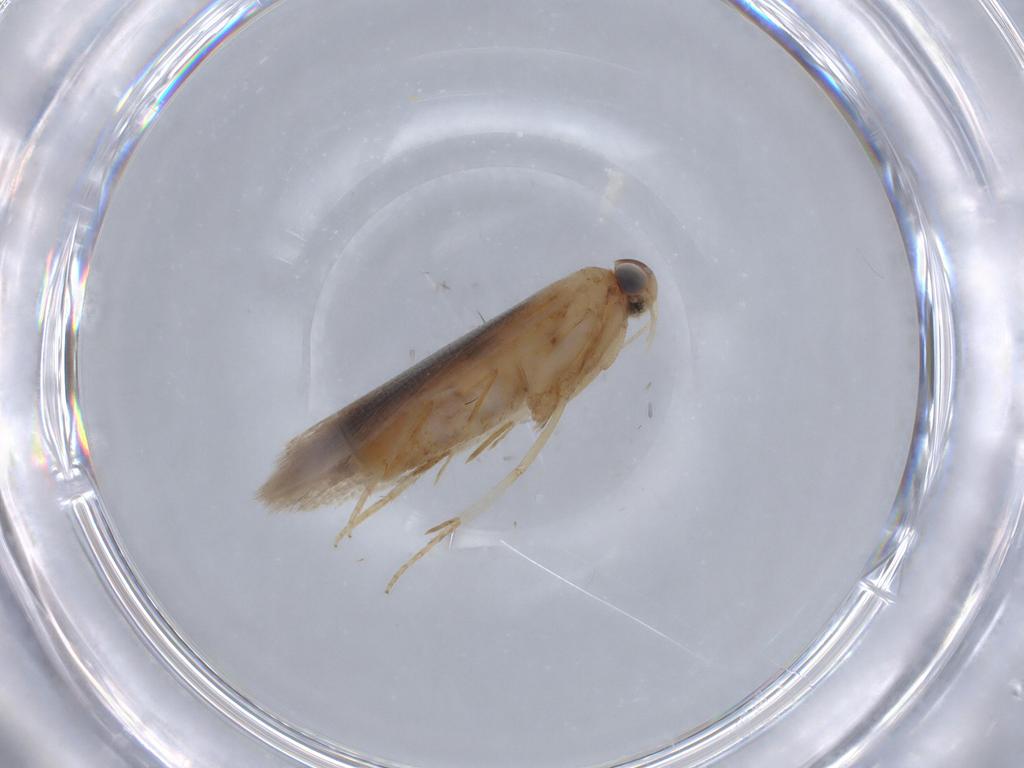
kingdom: Animalia
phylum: Arthropoda
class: Insecta
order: Lepidoptera
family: Gelechiidae
